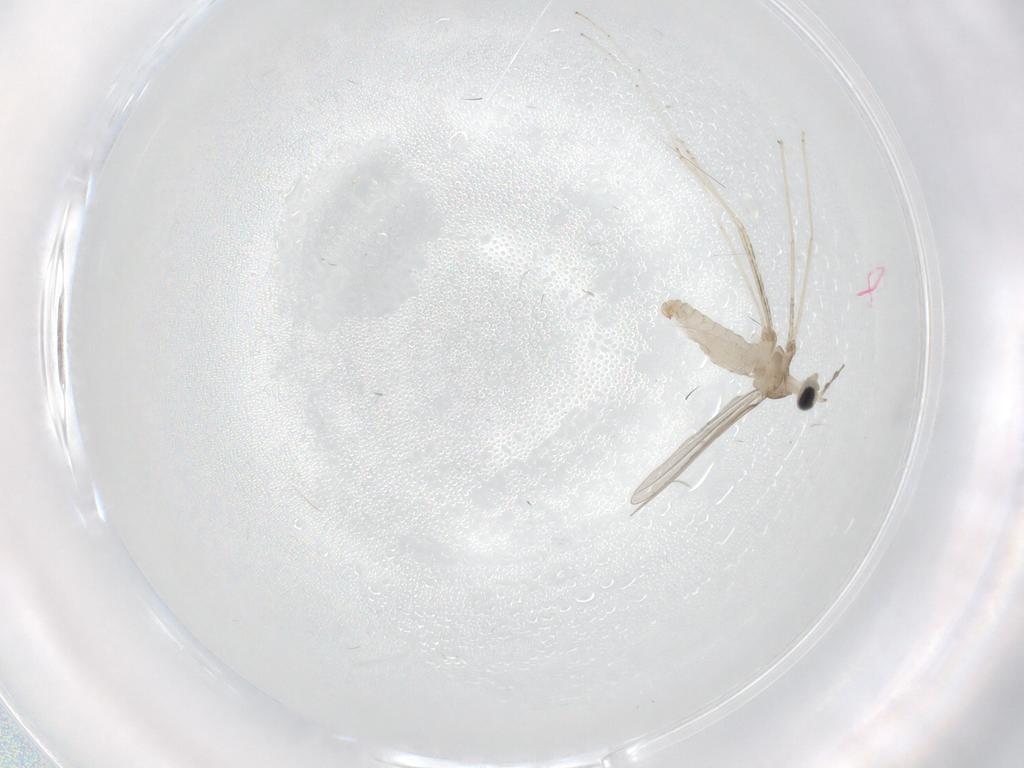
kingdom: Animalia
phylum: Arthropoda
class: Insecta
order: Diptera
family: Cecidomyiidae
